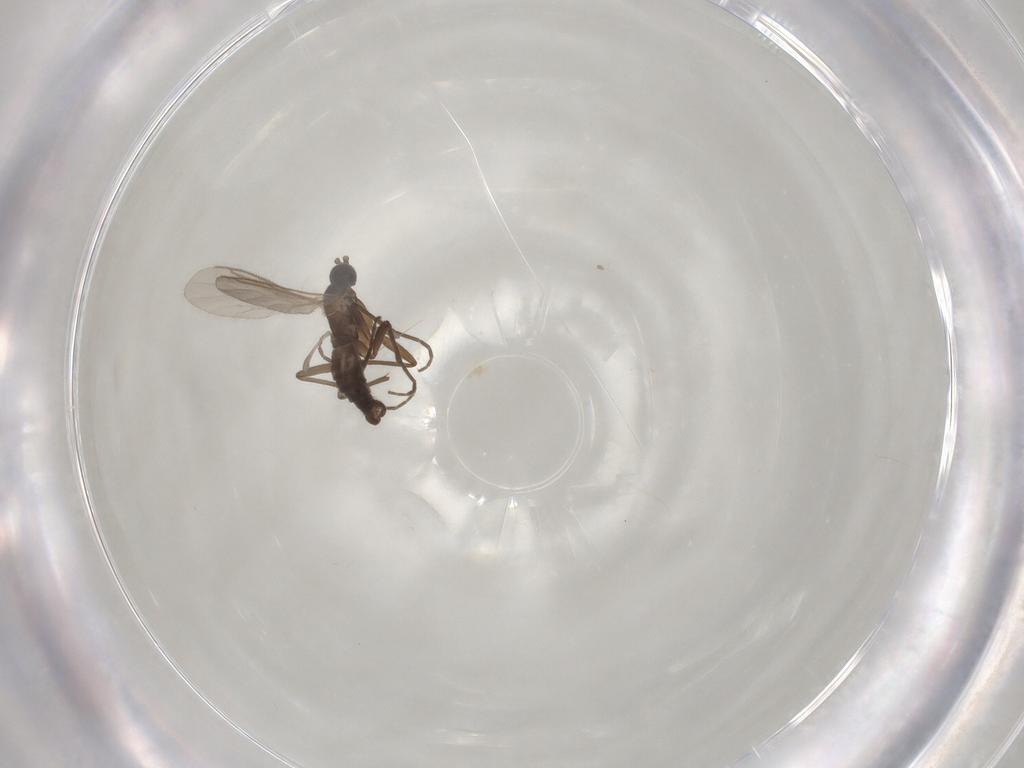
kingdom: Animalia
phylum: Arthropoda
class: Insecta
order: Diptera
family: Sciaridae
